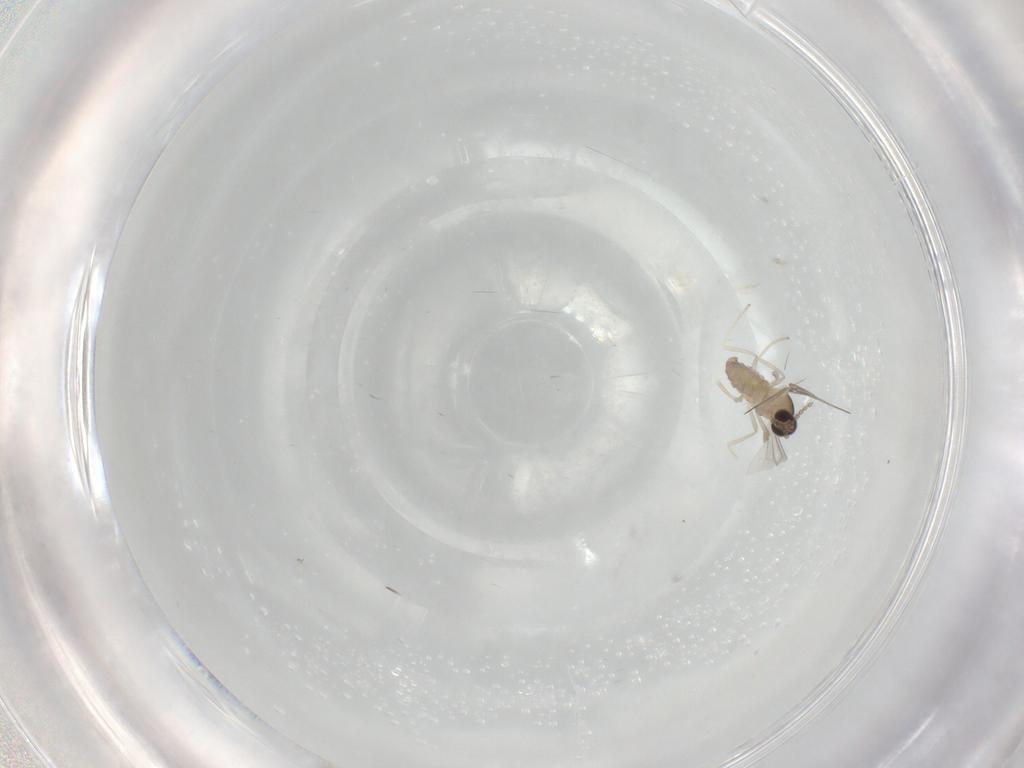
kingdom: Animalia
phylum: Arthropoda
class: Insecta
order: Diptera
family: Cecidomyiidae
